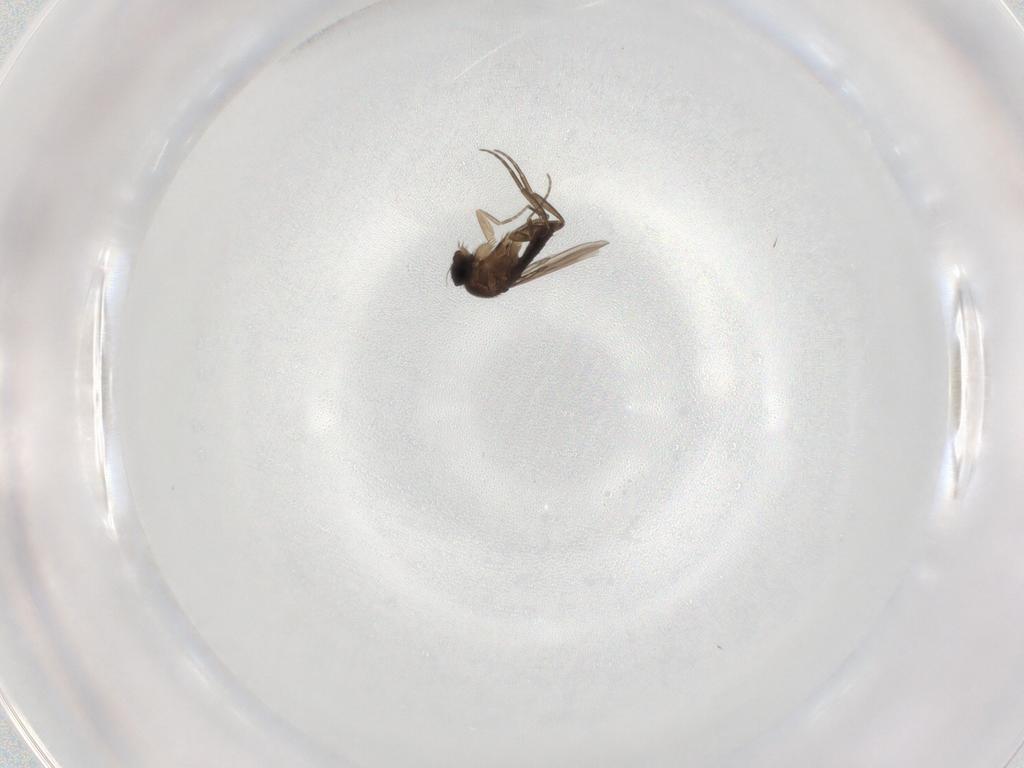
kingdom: Animalia
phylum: Arthropoda
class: Insecta
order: Diptera
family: Phoridae
